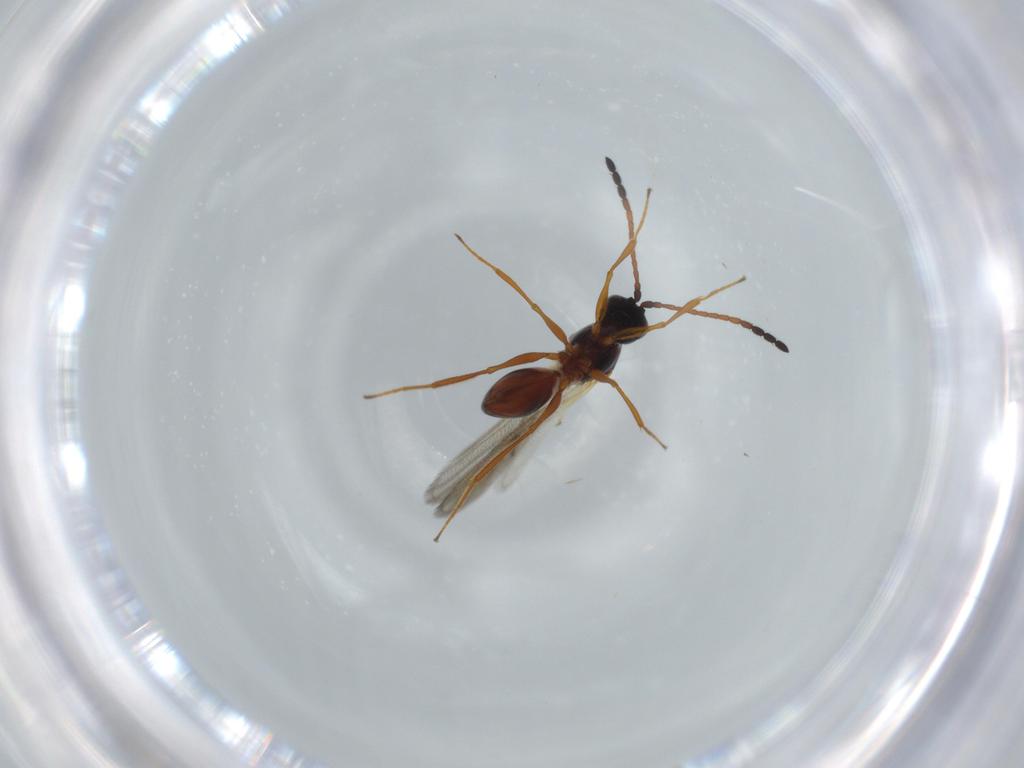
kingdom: Animalia
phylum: Arthropoda
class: Insecta
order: Hymenoptera
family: Figitidae
